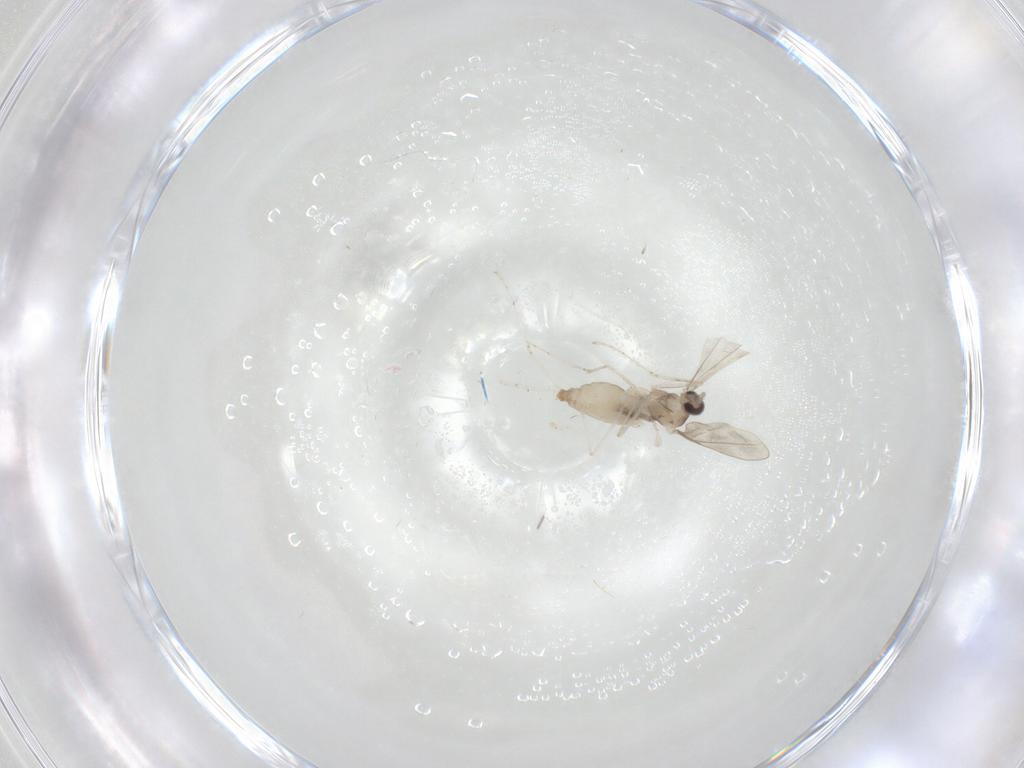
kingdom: Animalia
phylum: Arthropoda
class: Insecta
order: Diptera
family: Cecidomyiidae
